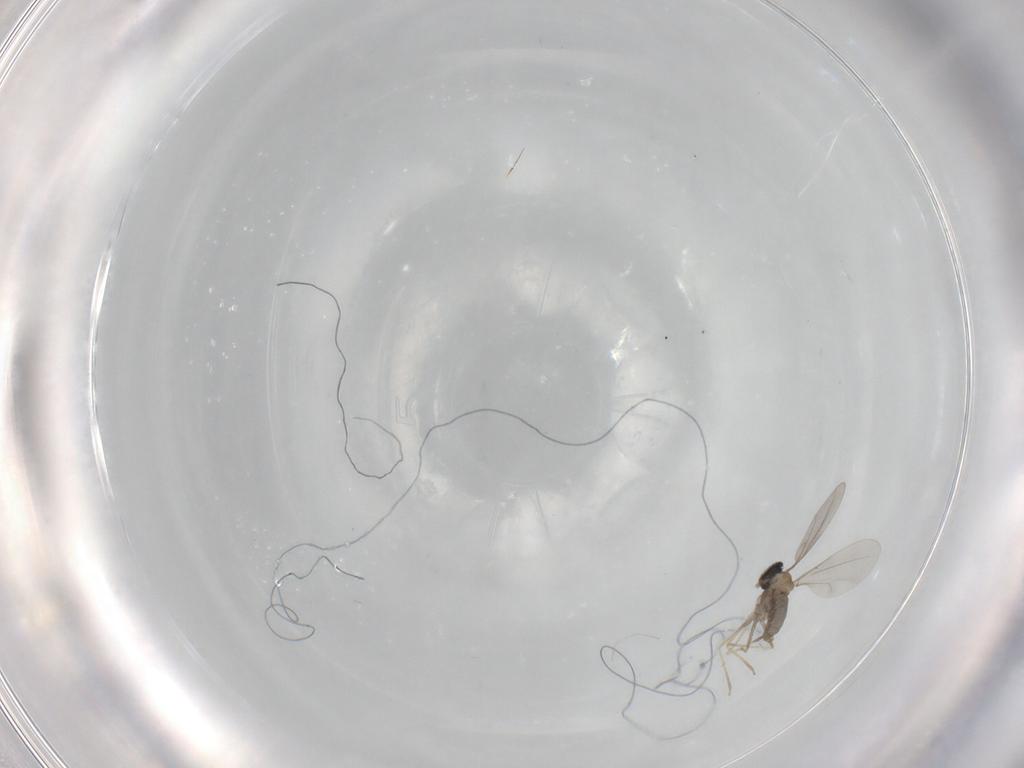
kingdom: Animalia
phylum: Arthropoda
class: Insecta
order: Diptera
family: Cecidomyiidae
